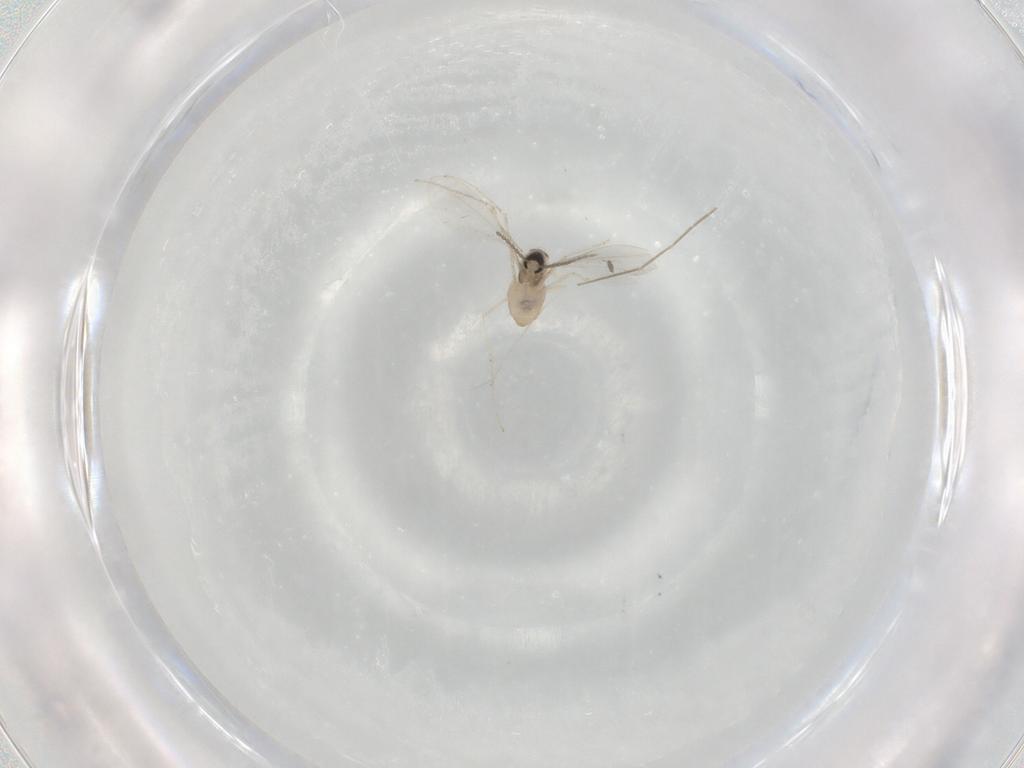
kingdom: Animalia
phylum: Arthropoda
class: Insecta
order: Diptera
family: Chironomidae
